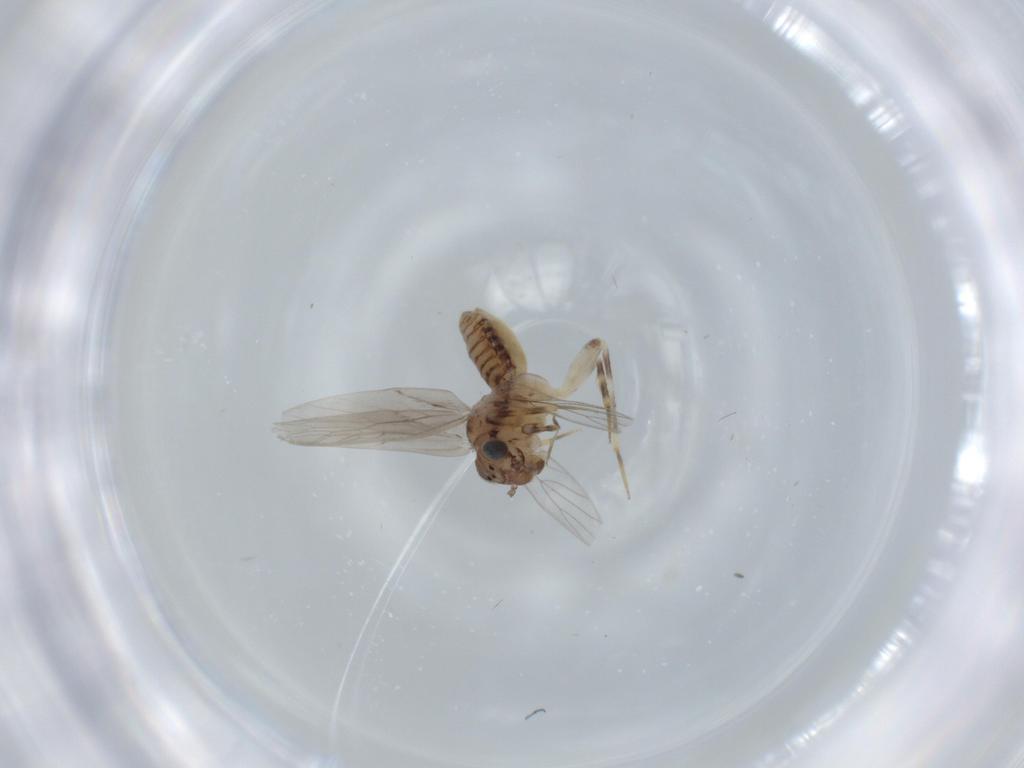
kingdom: Animalia
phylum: Arthropoda
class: Insecta
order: Psocodea
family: Lepidopsocidae
